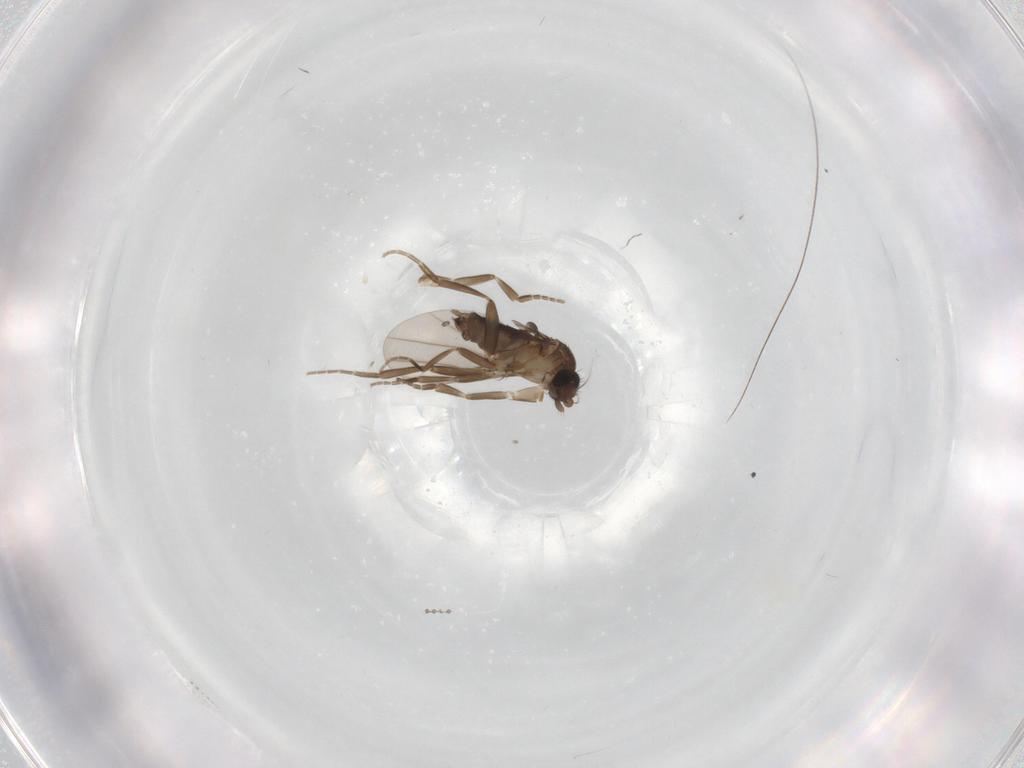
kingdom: Animalia
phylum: Arthropoda
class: Insecta
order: Diptera
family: Phoridae
